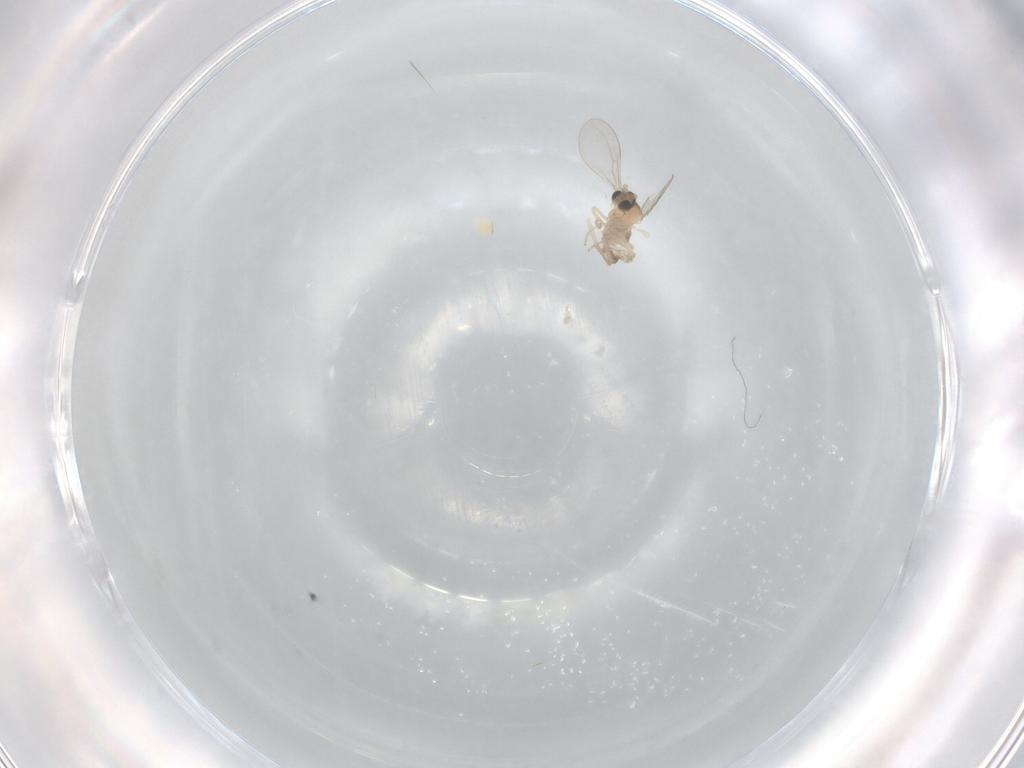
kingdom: Animalia
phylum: Arthropoda
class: Insecta
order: Diptera
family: Cecidomyiidae
